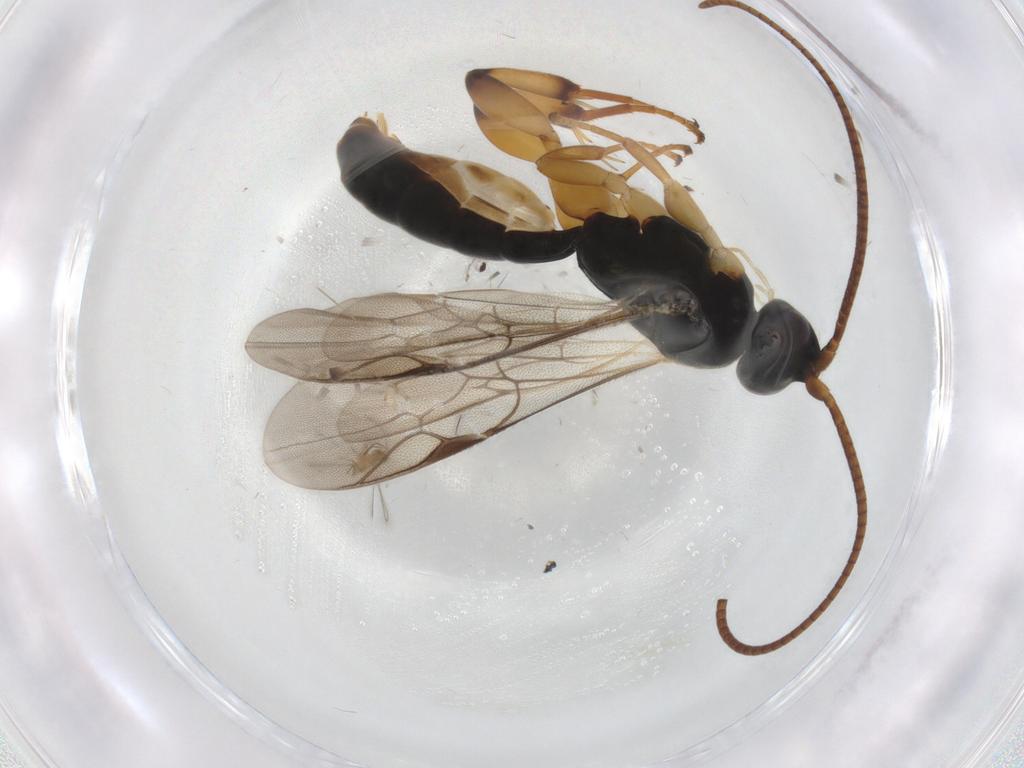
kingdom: Animalia
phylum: Arthropoda
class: Insecta
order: Hymenoptera
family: Ichneumonidae
